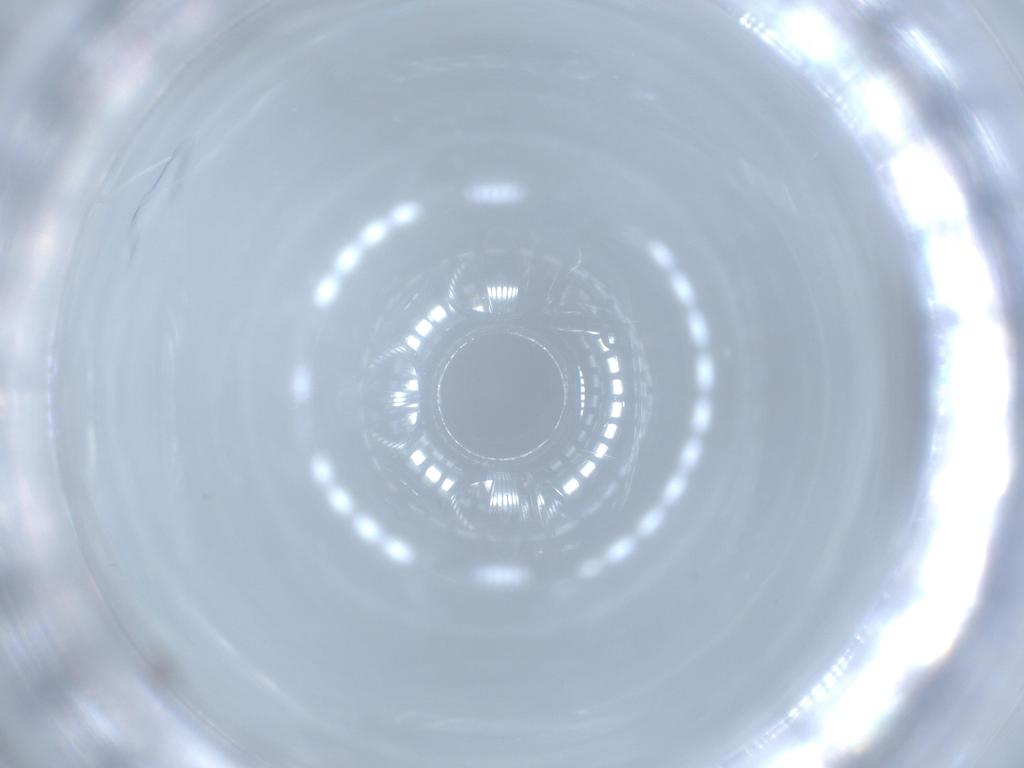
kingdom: Animalia
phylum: Arthropoda
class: Insecta
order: Psocodea
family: Lepidopsocidae
